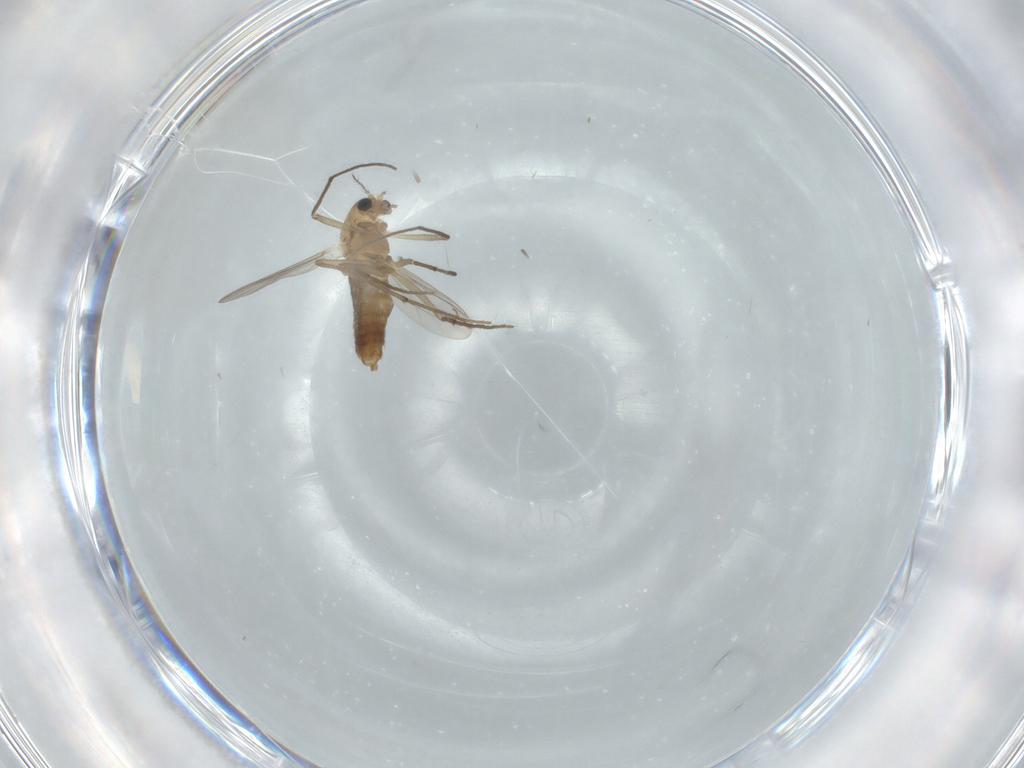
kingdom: Animalia
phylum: Arthropoda
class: Insecta
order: Diptera
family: Chironomidae
